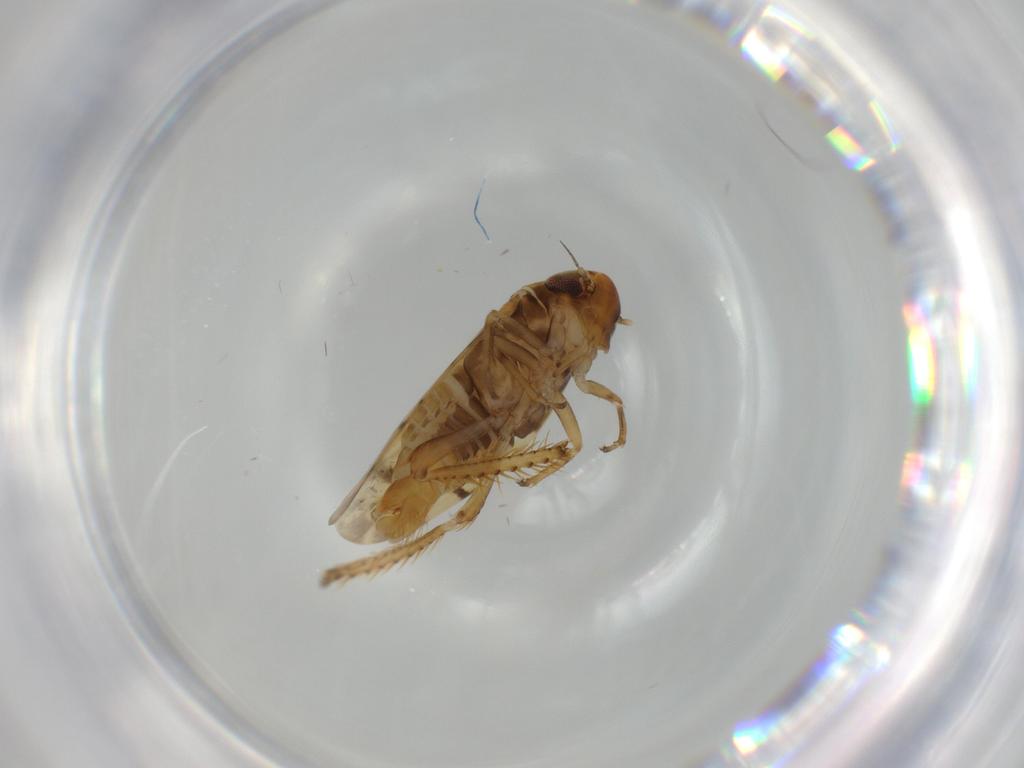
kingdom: Animalia
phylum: Arthropoda
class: Insecta
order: Hemiptera
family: Cicadellidae
